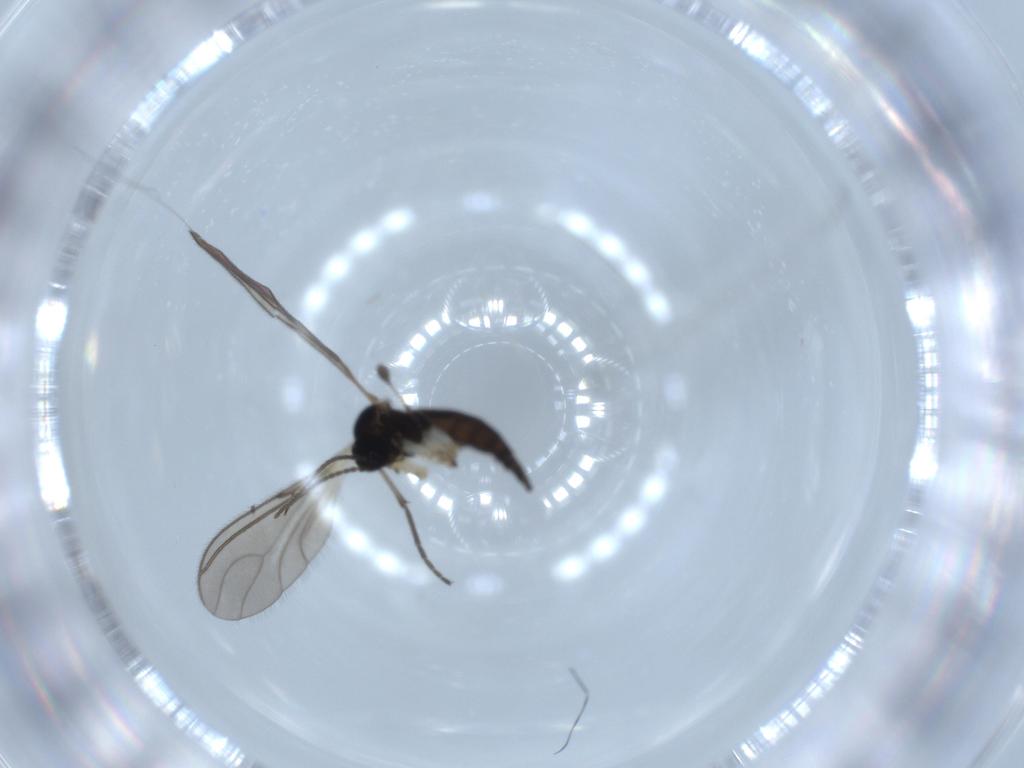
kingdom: Animalia
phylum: Arthropoda
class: Insecta
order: Diptera
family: Sciaridae
